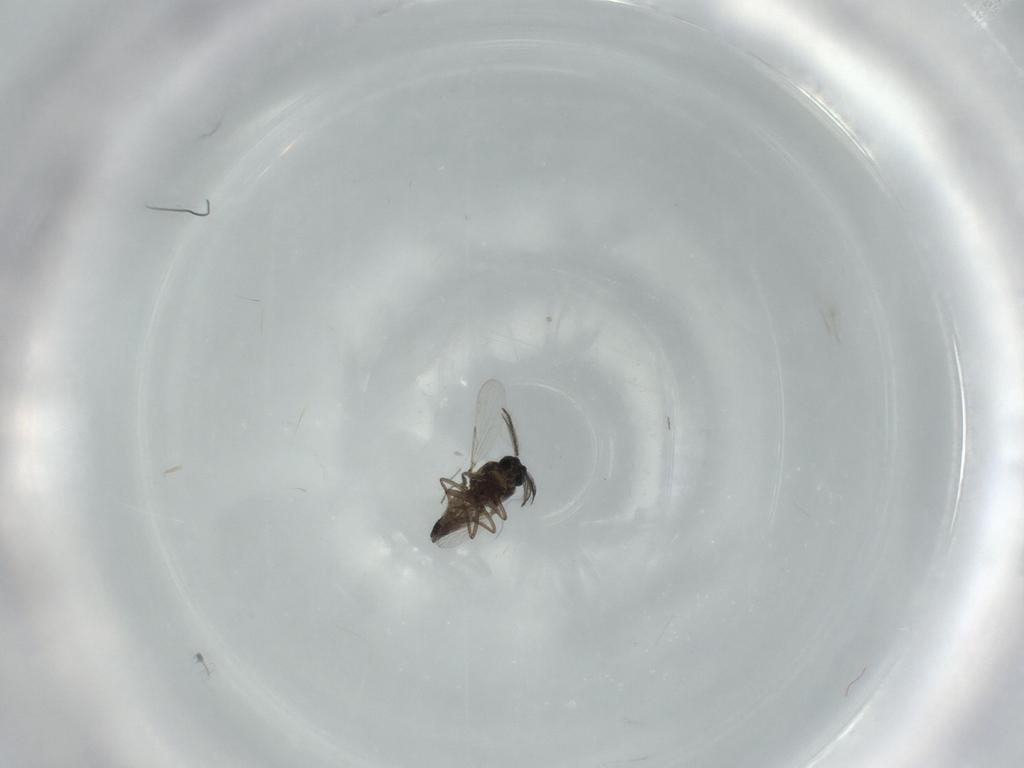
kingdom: Animalia
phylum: Arthropoda
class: Insecta
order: Diptera
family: Ceratopogonidae
